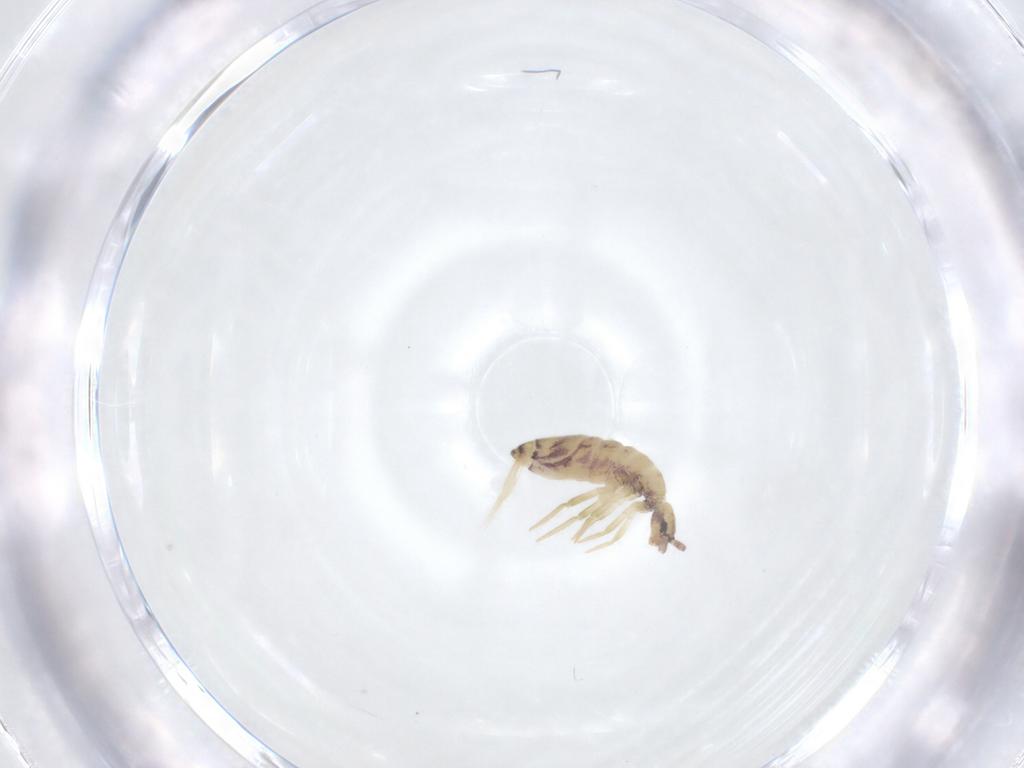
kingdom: Animalia
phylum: Arthropoda
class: Collembola
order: Entomobryomorpha
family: Entomobryidae
